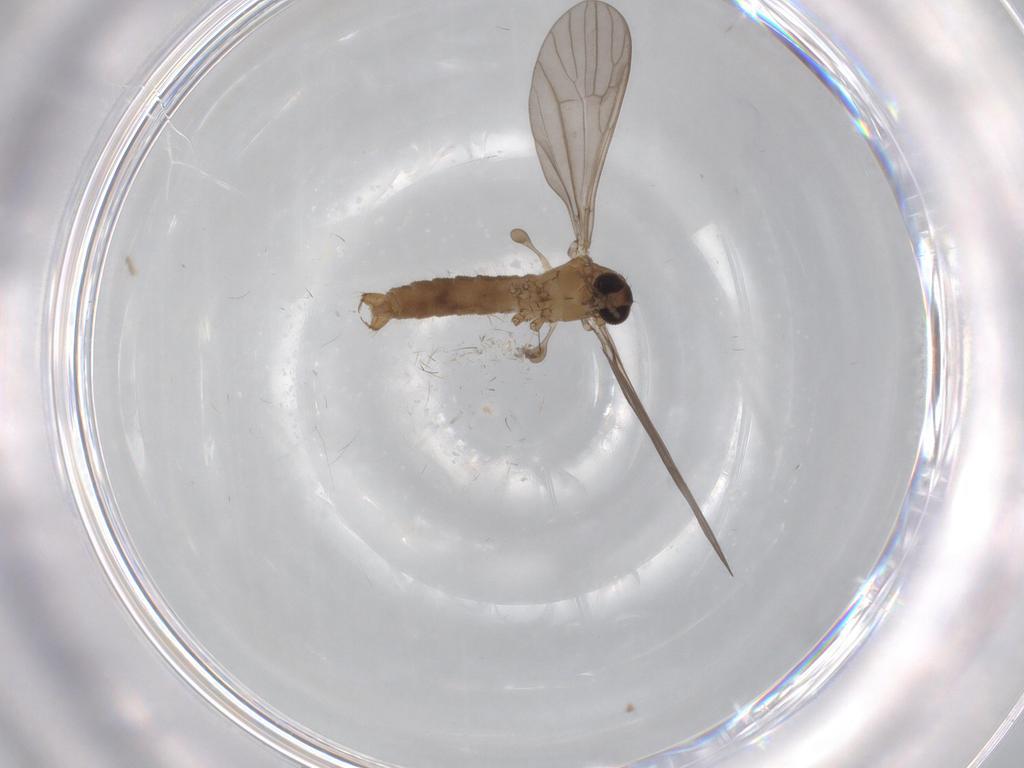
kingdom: Animalia
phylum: Arthropoda
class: Insecta
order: Diptera
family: Limoniidae
